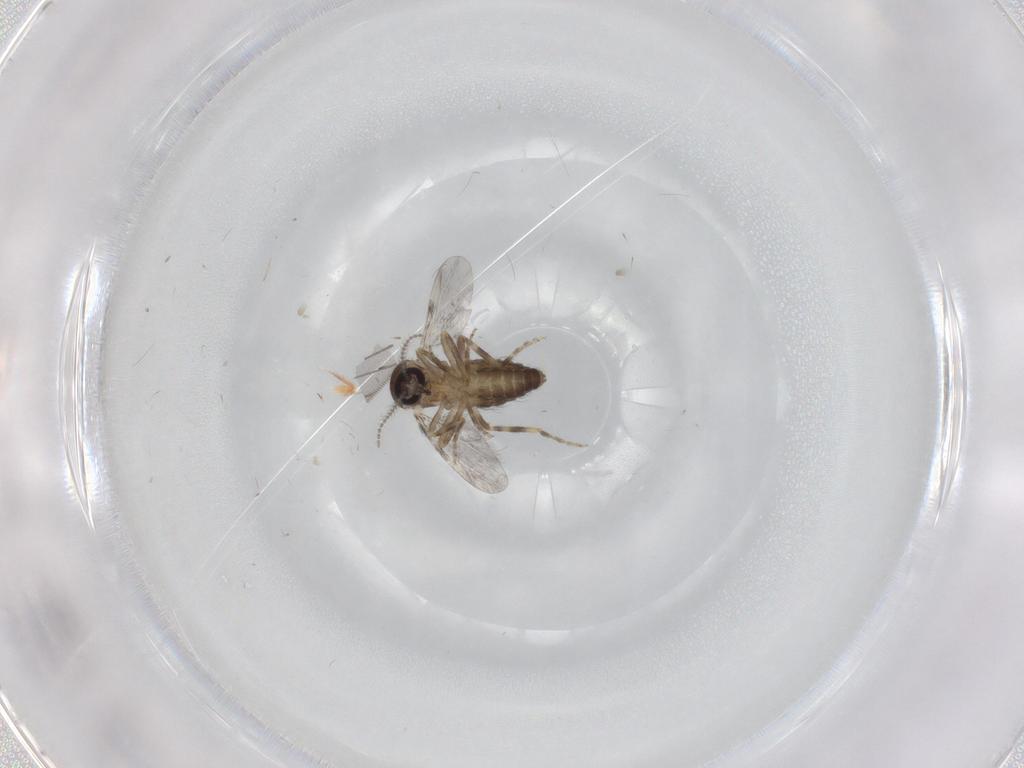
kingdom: Animalia
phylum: Arthropoda
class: Insecta
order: Diptera
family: Ceratopogonidae
